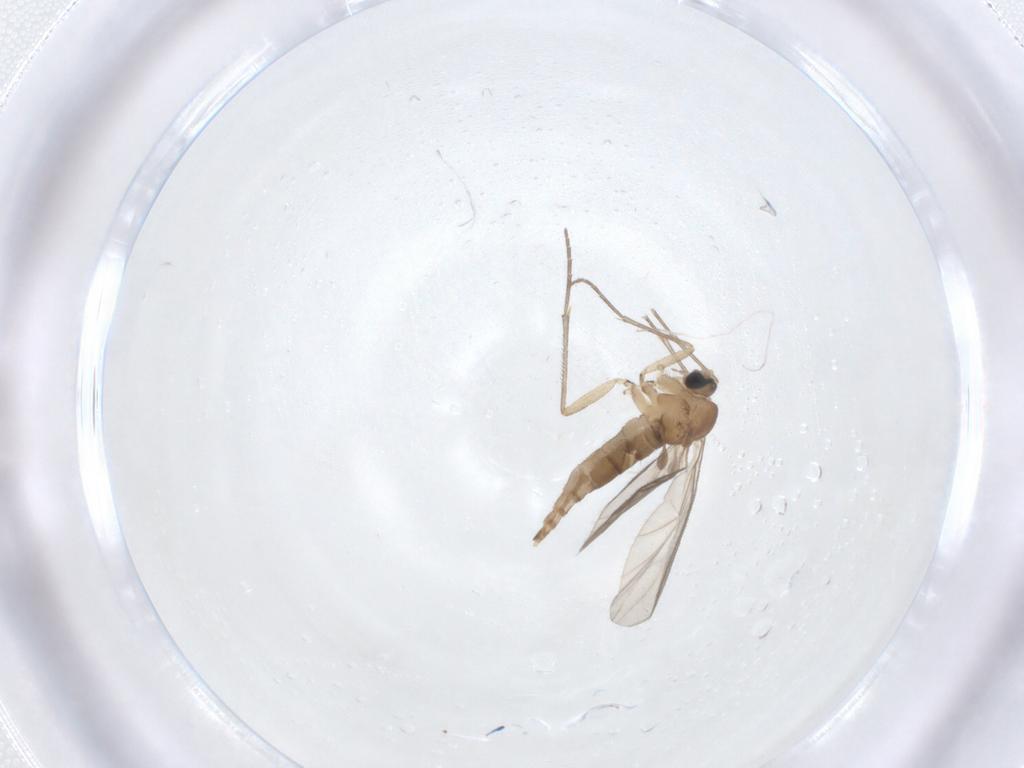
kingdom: Animalia
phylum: Arthropoda
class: Insecta
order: Diptera
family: Sciaridae
